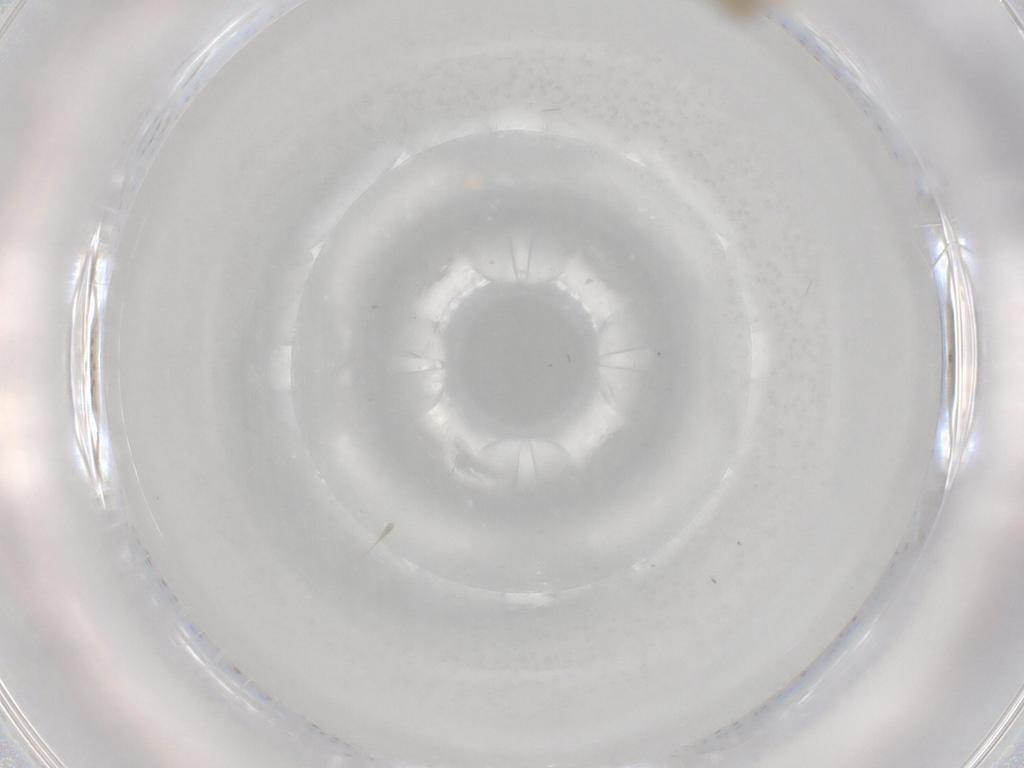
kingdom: Animalia
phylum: Arthropoda
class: Insecta
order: Diptera
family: Psychodidae
